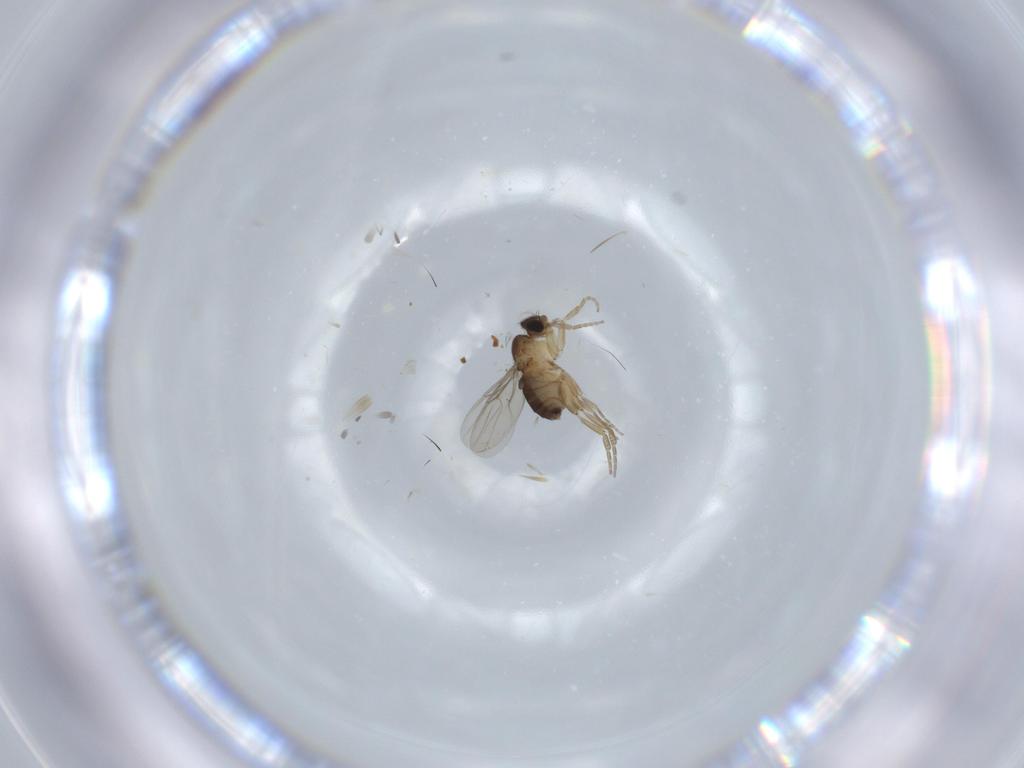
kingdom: Animalia
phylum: Arthropoda
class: Insecta
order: Diptera
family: Phoridae
